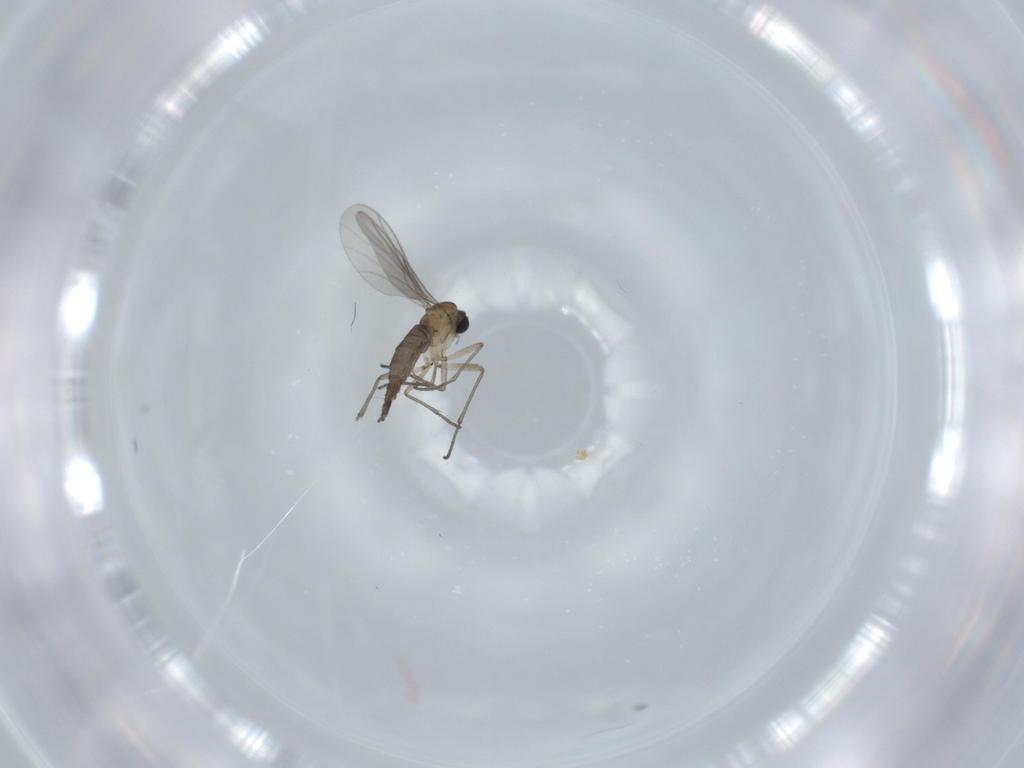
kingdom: Animalia
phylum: Arthropoda
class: Insecta
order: Diptera
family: Sciaridae
